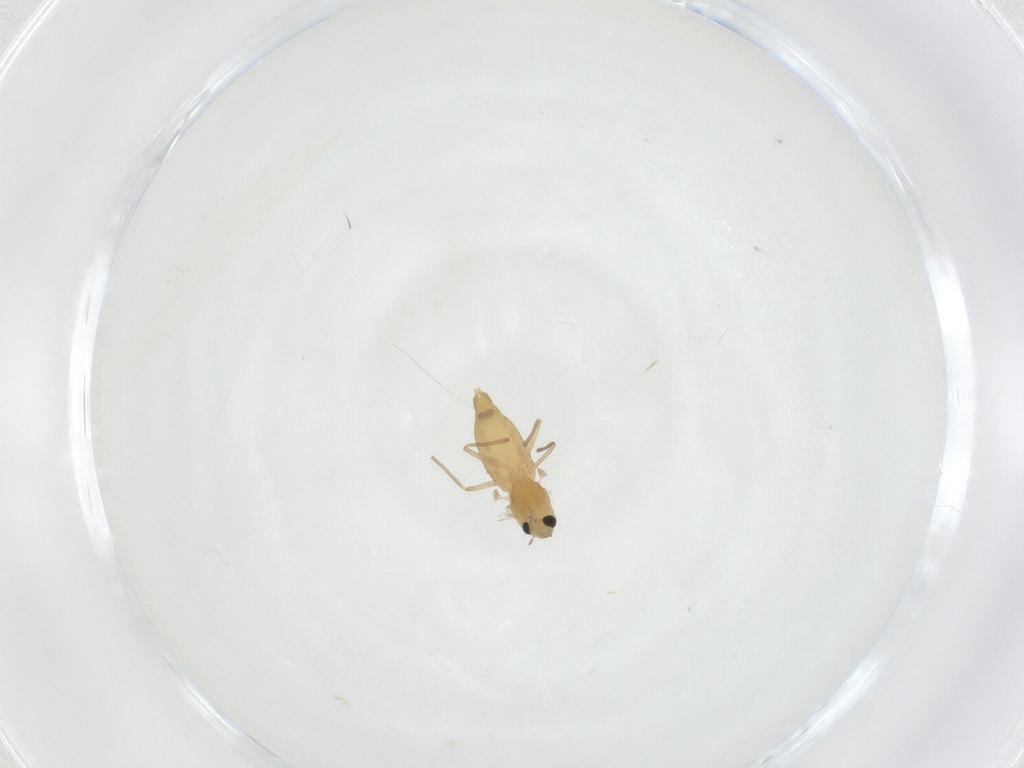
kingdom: Animalia
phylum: Arthropoda
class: Insecta
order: Diptera
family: Chironomidae
